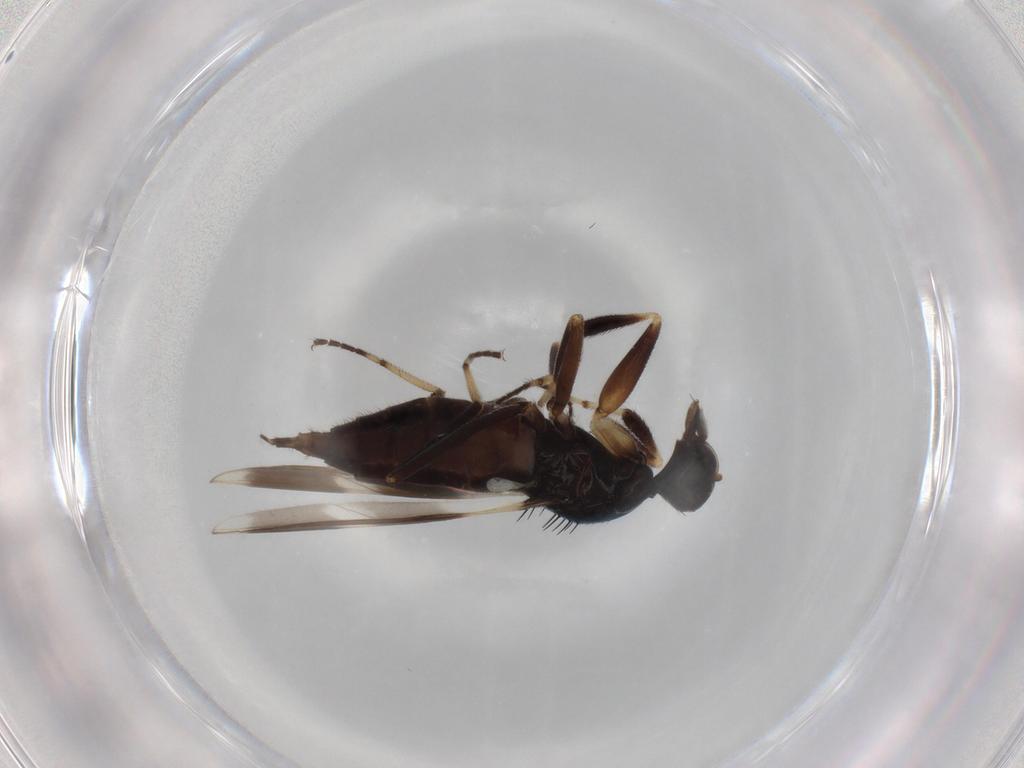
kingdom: Animalia
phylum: Arthropoda
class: Insecta
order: Diptera
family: Hybotidae
